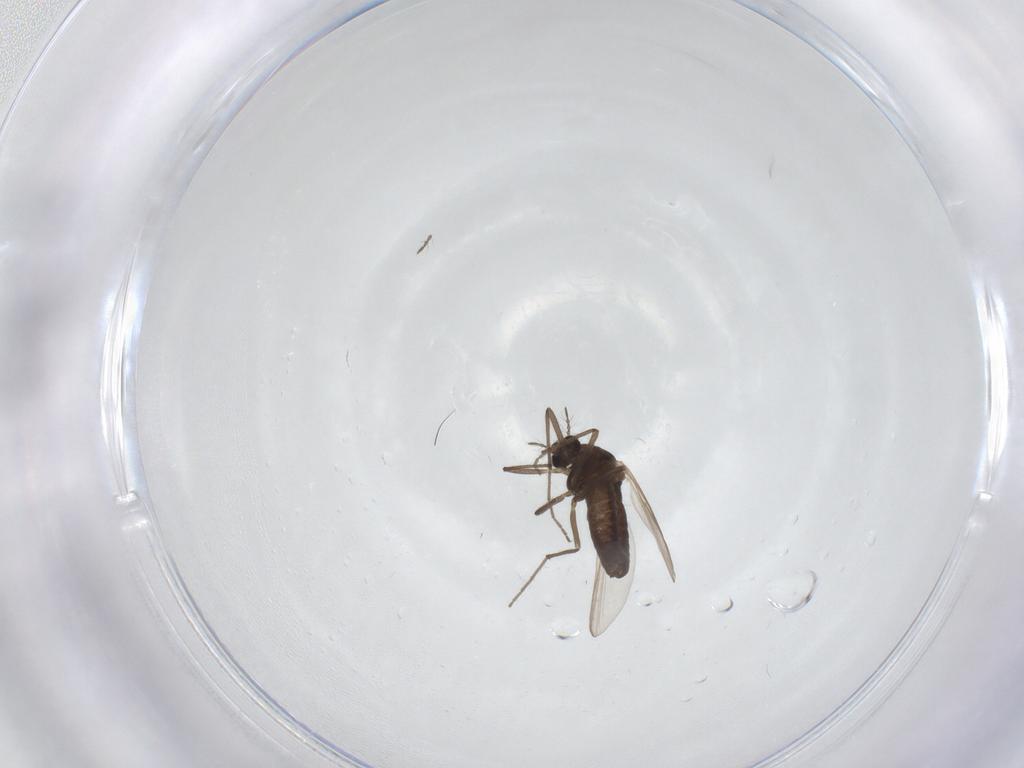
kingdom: Animalia
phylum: Arthropoda
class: Insecta
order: Diptera
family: Chironomidae
